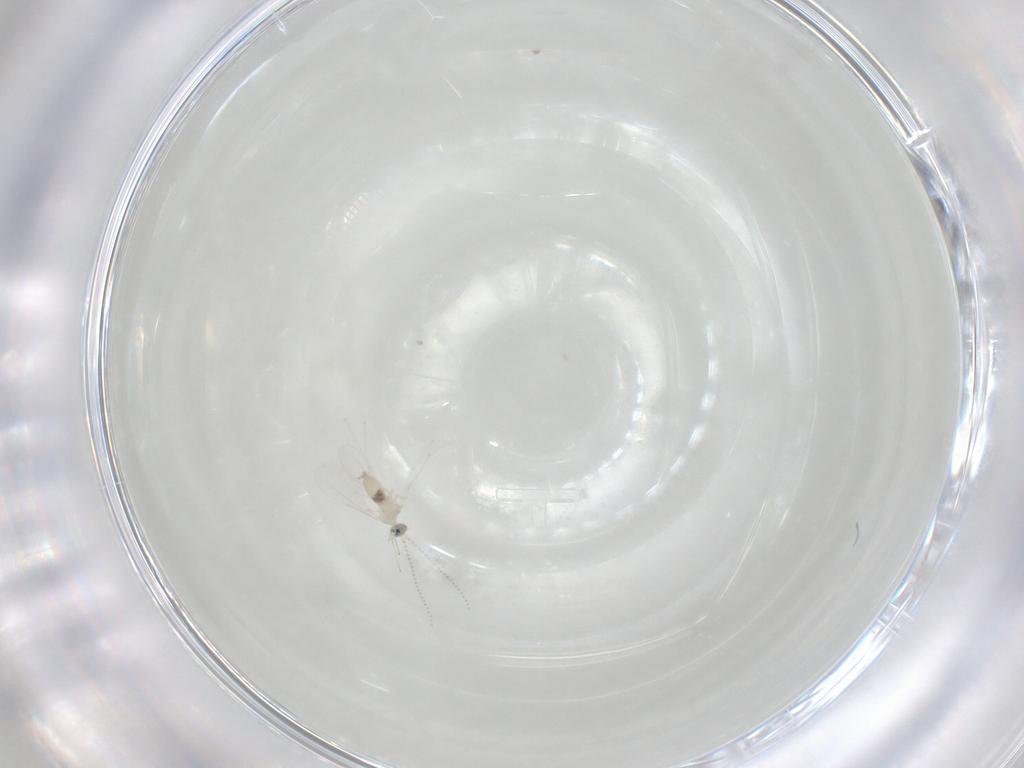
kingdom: Animalia
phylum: Arthropoda
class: Insecta
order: Diptera
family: Cecidomyiidae
